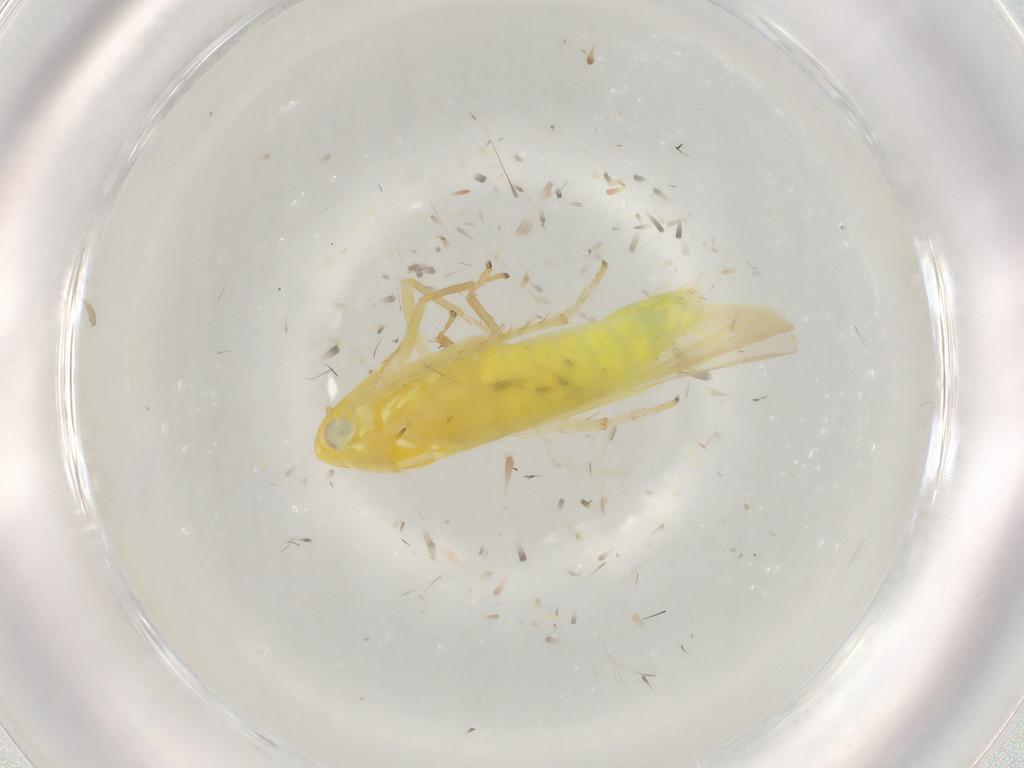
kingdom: Animalia
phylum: Arthropoda
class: Insecta
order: Hemiptera
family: Cicadellidae
